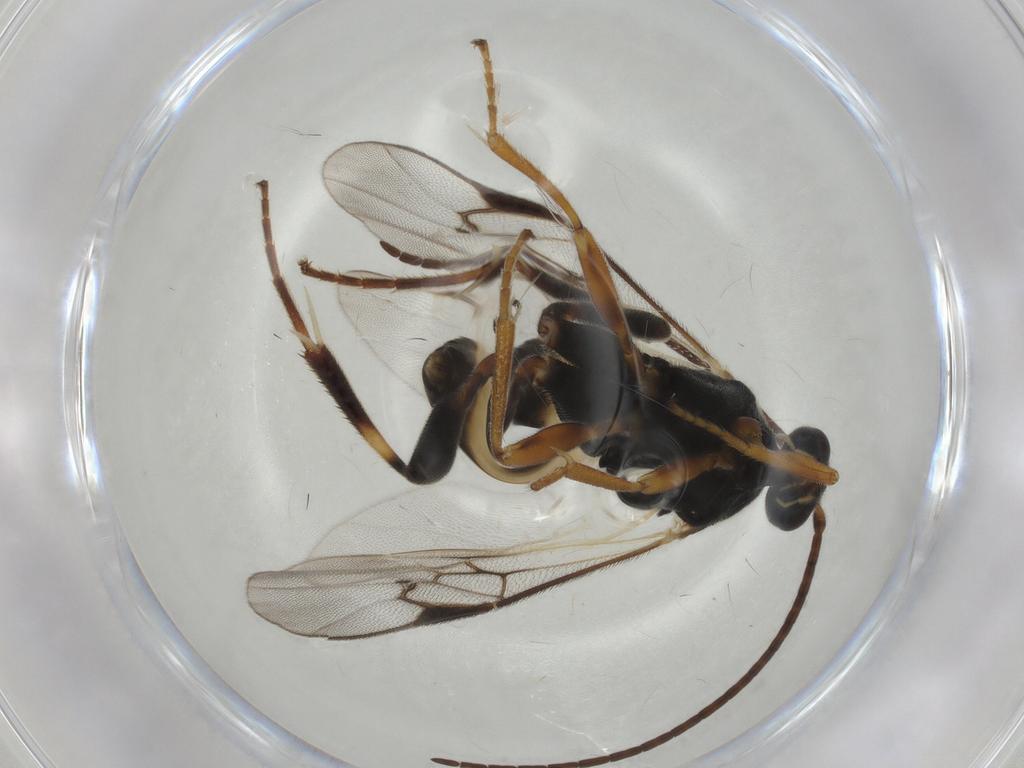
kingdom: Animalia
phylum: Arthropoda
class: Insecta
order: Hymenoptera
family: Braconidae
